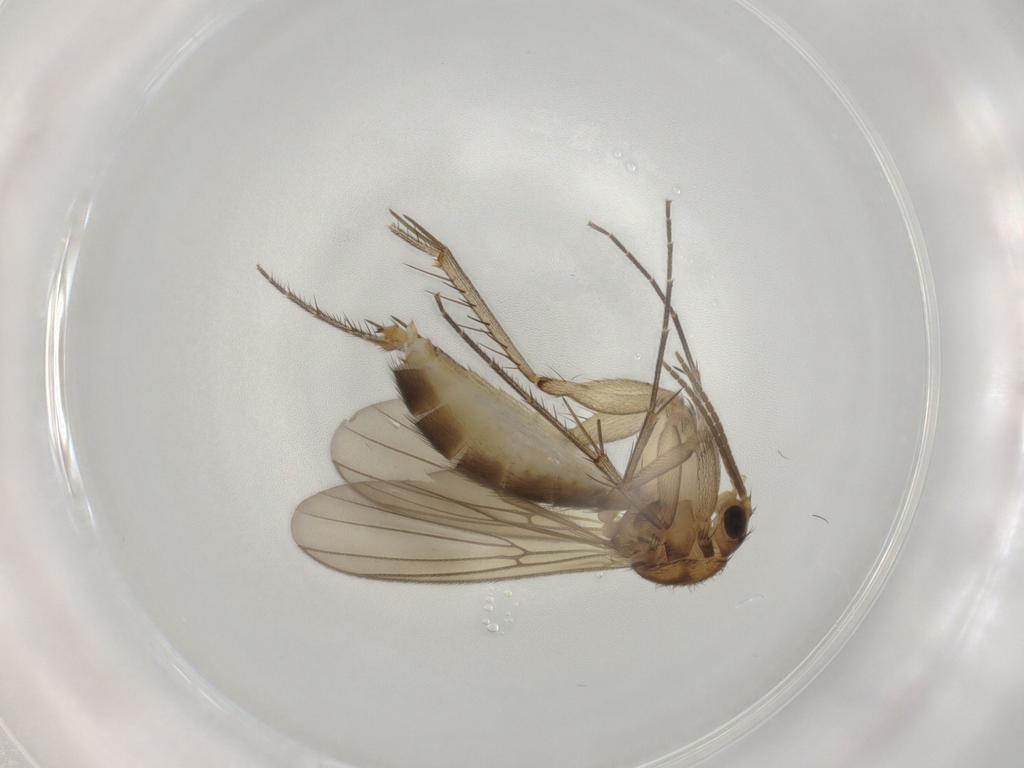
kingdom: Animalia
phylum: Arthropoda
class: Insecta
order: Diptera
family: Mycetophilidae
